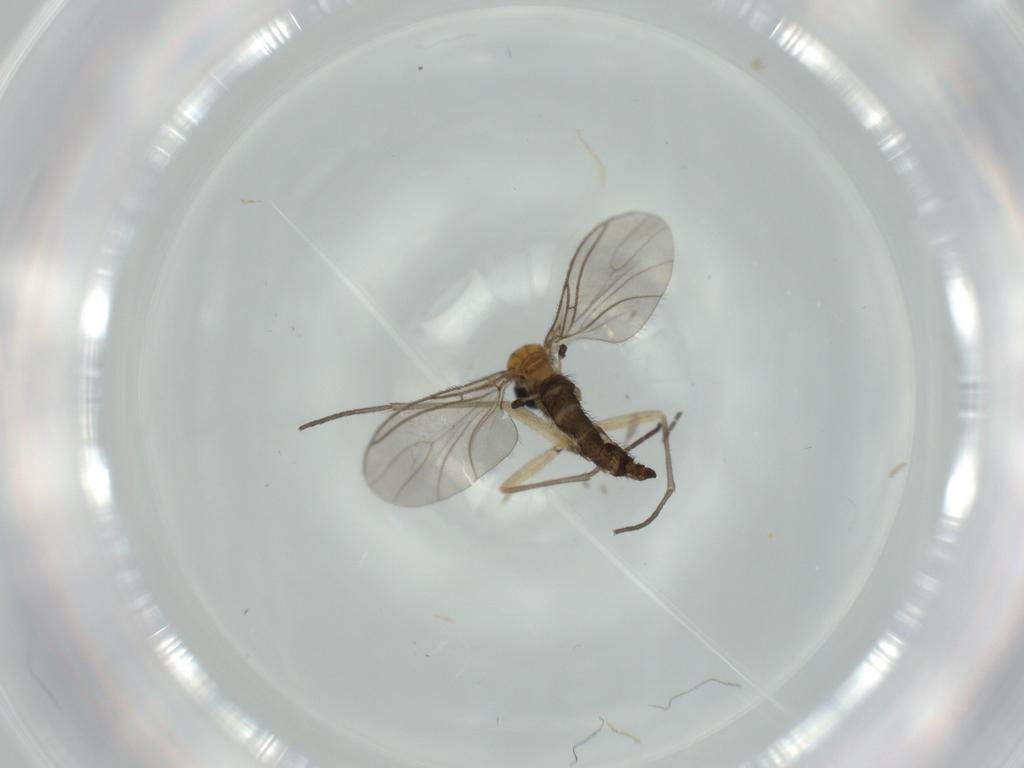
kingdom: Animalia
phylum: Arthropoda
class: Insecta
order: Diptera
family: Sciaridae
